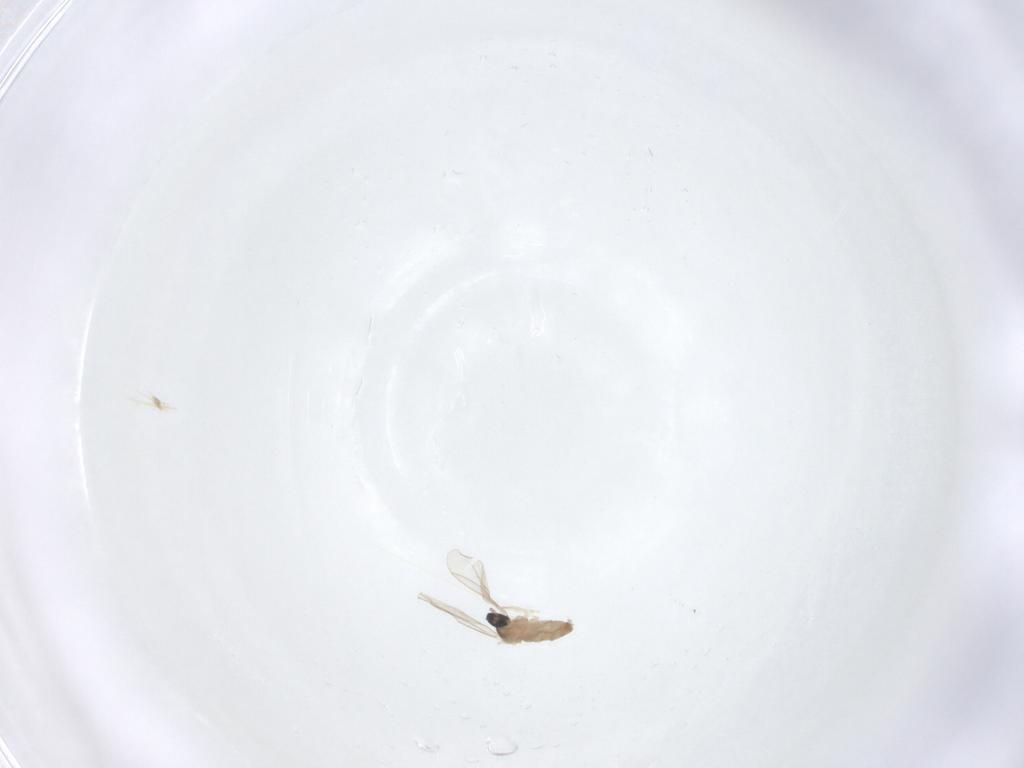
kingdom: Animalia
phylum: Arthropoda
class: Insecta
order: Diptera
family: Cecidomyiidae
